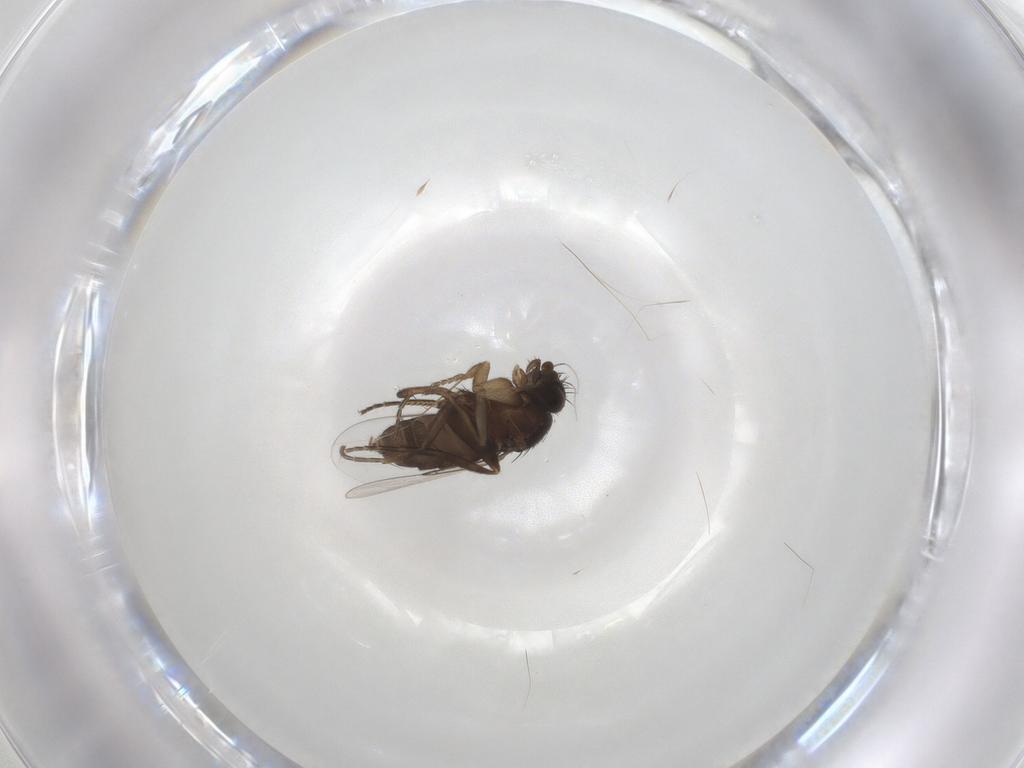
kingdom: Animalia
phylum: Arthropoda
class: Insecta
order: Diptera
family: Phoridae
